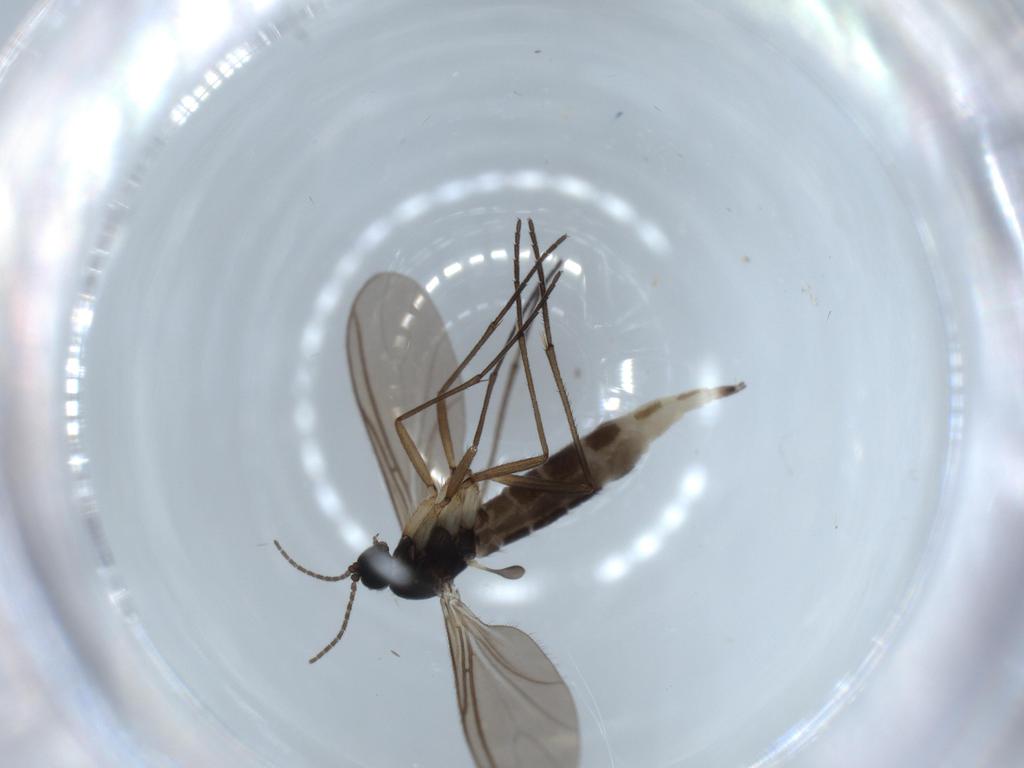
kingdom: Animalia
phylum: Arthropoda
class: Insecta
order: Diptera
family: Sciaridae
